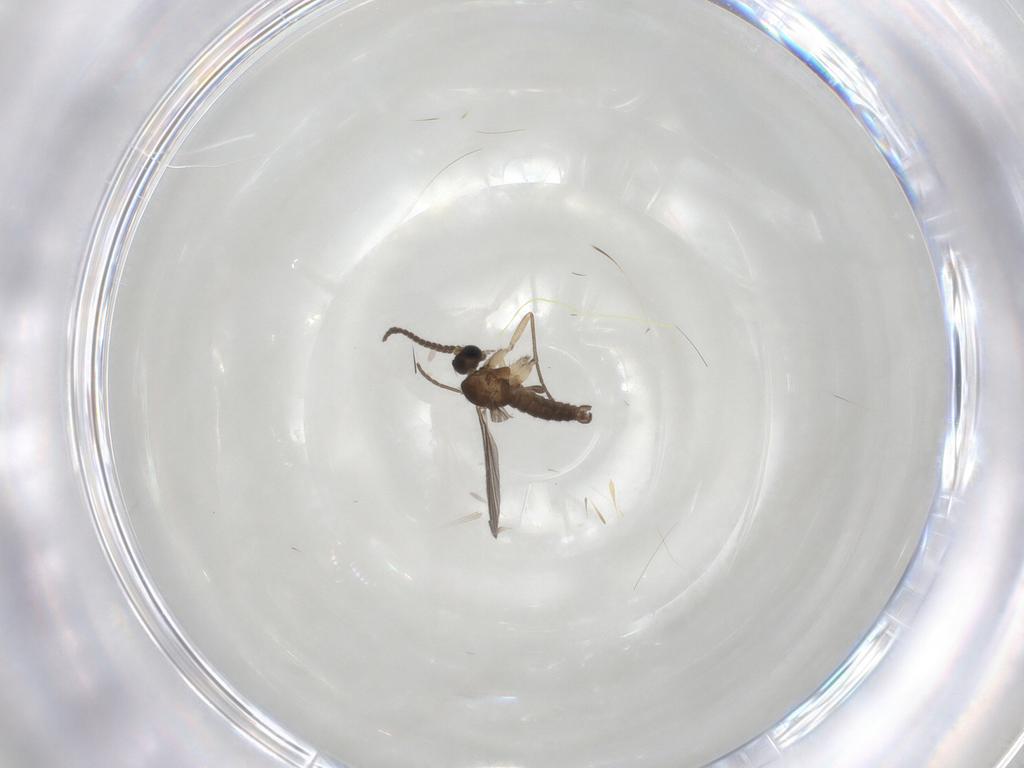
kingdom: Animalia
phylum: Arthropoda
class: Insecta
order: Diptera
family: Sciaridae
